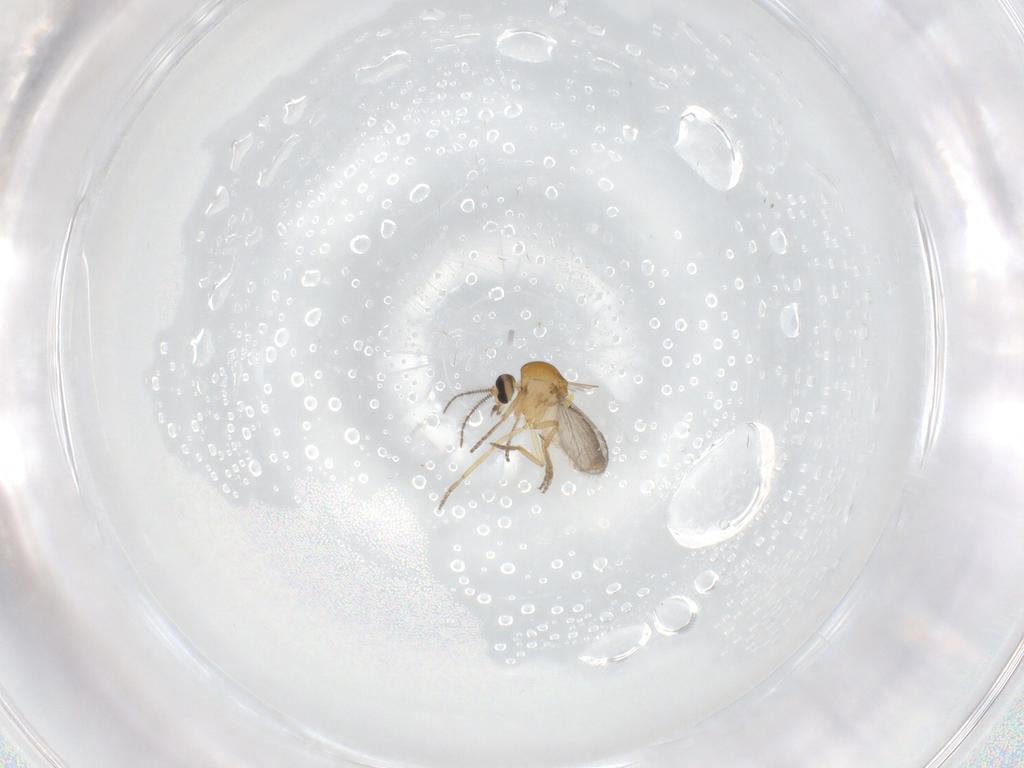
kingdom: Animalia
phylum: Arthropoda
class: Insecta
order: Diptera
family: Ceratopogonidae
